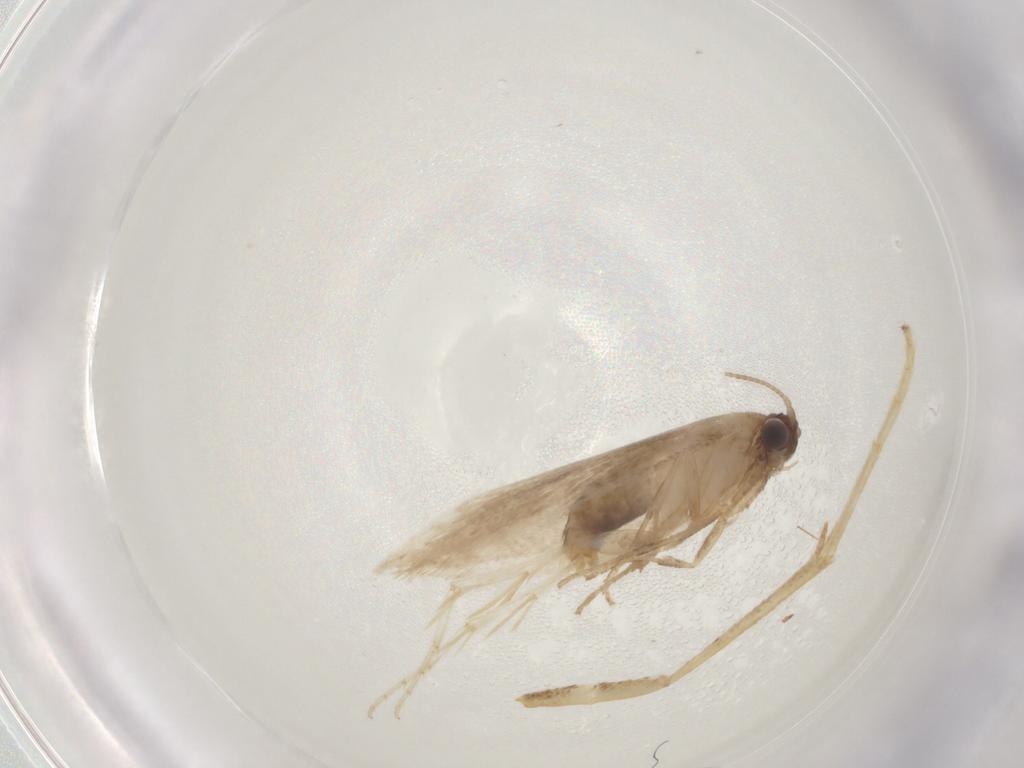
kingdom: Animalia
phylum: Arthropoda
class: Insecta
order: Lepidoptera
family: Nepticulidae
